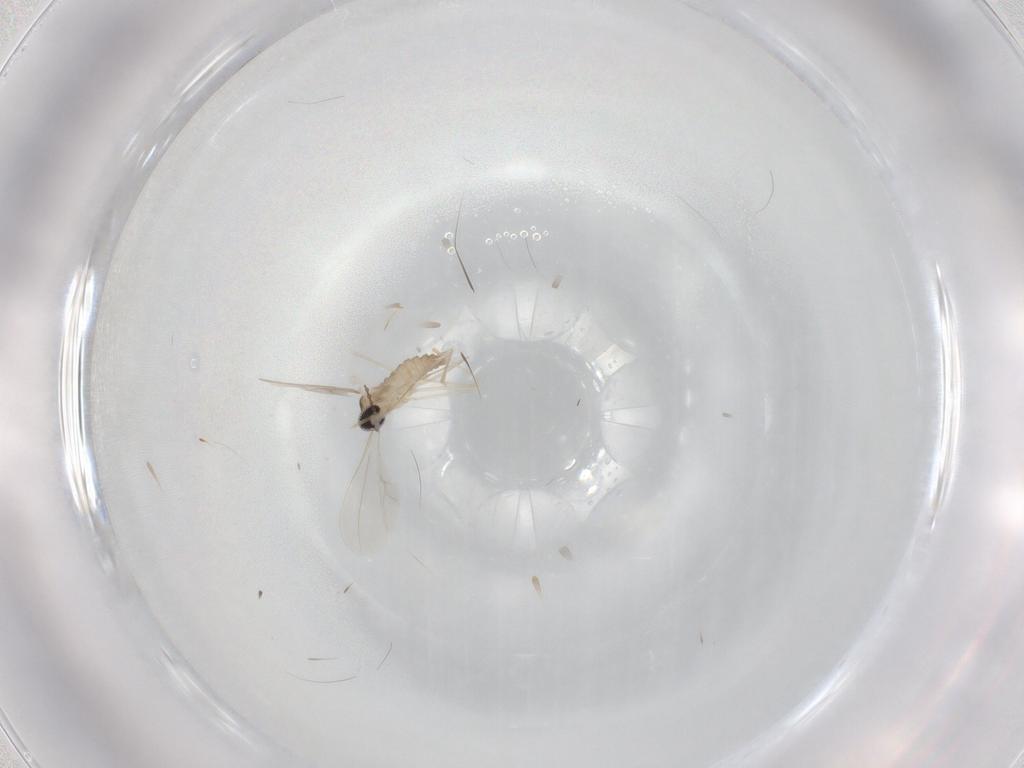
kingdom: Animalia
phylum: Arthropoda
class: Insecta
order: Diptera
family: Cecidomyiidae
